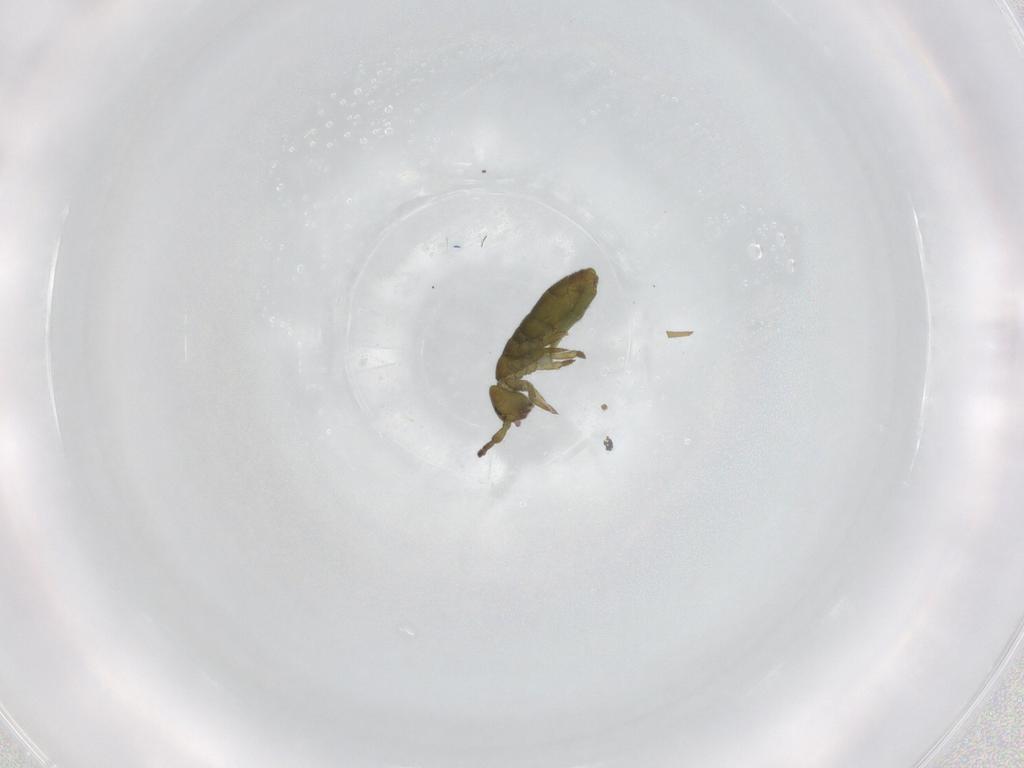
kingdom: Animalia
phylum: Arthropoda
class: Collembola
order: Entomobryomorpha
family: Isotomidae
